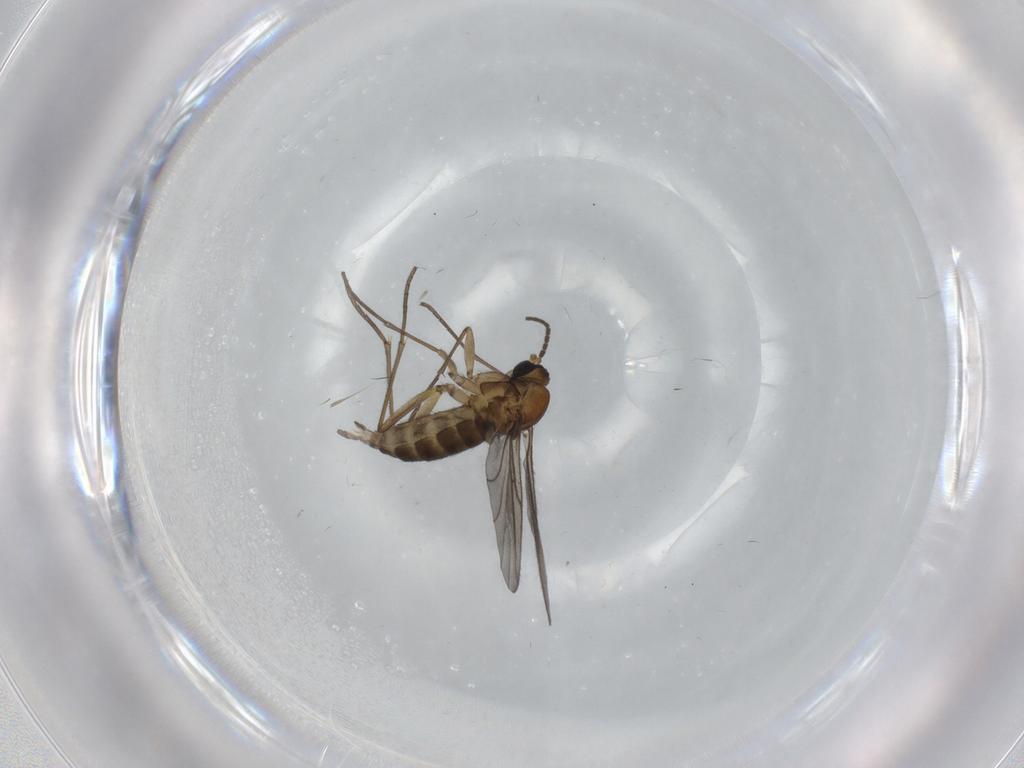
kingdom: Animalia
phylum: Arthropoda
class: Insecta
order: Diptera
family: Sciaridae
